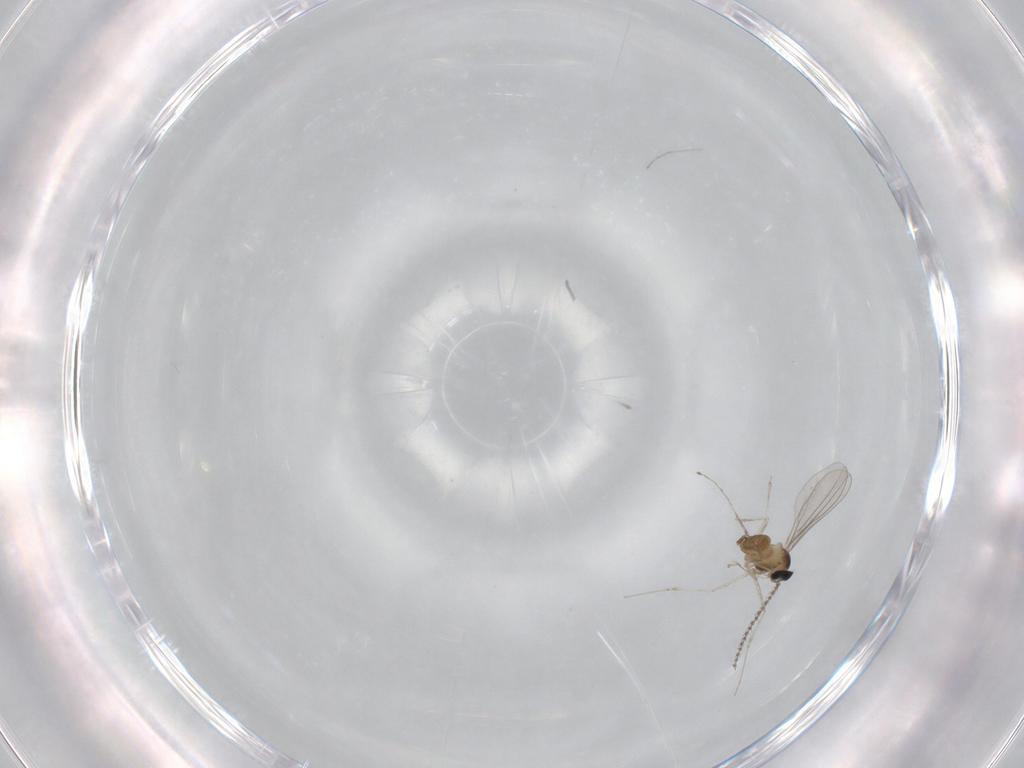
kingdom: Animalia
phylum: Arthropoda
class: Insecta
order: Diptera
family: Cecidomyiidae
